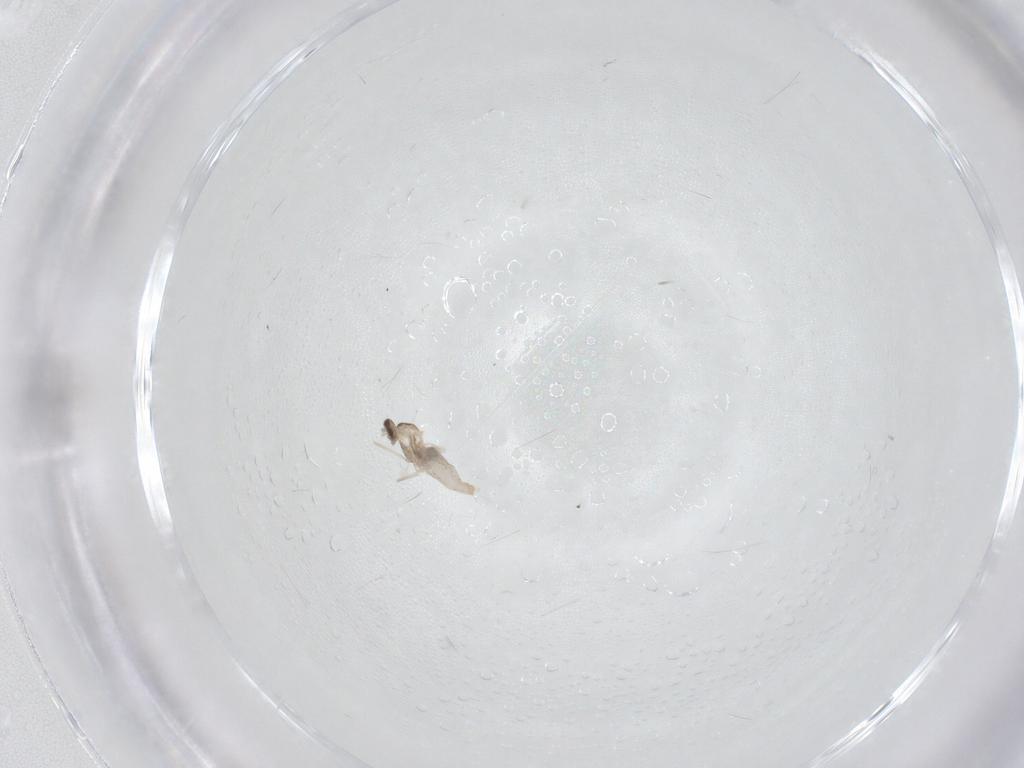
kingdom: Animalia
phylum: Arthropoda
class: Insecta
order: Diptera
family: Cecidomyiidae
